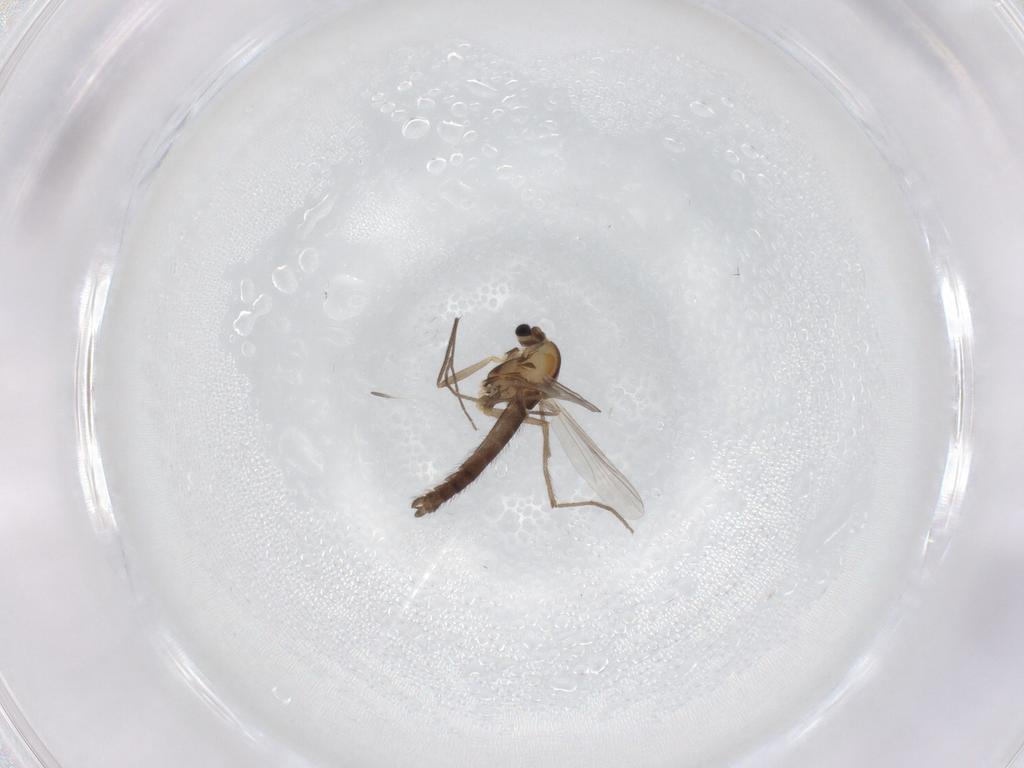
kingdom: Animalia
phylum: Arthropoda
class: Insecta
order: Diptera
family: Chironomidae
